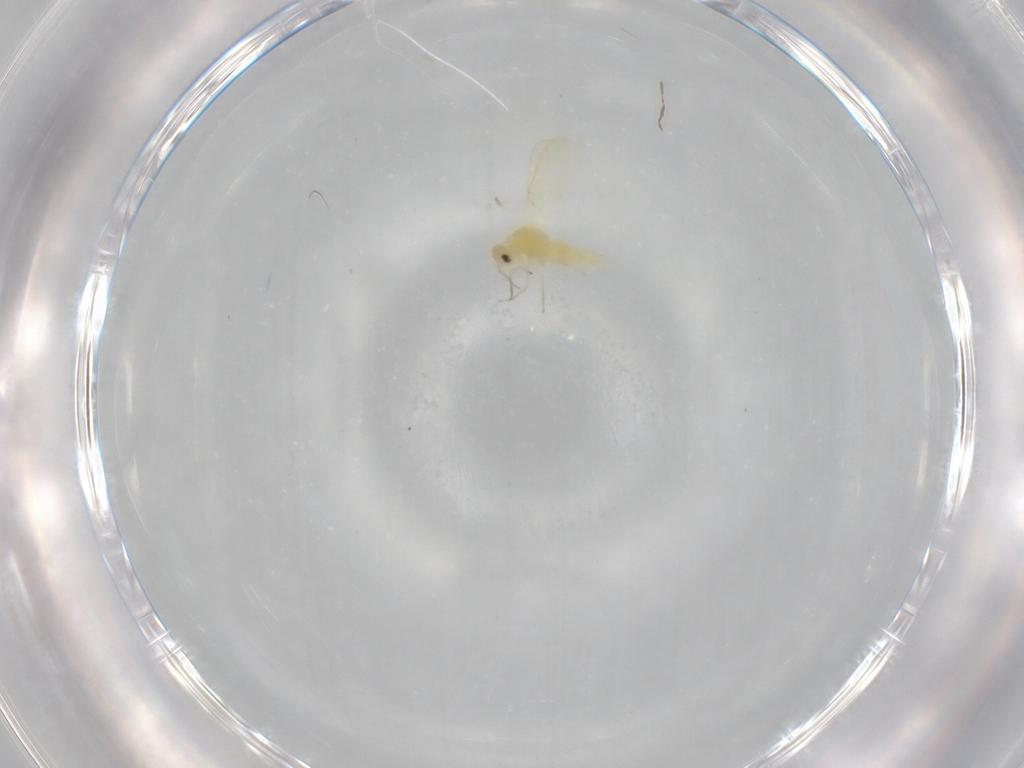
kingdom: Animalia
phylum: Arthropoda
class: Insecta
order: Hemiptera
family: Aleyrodidae
